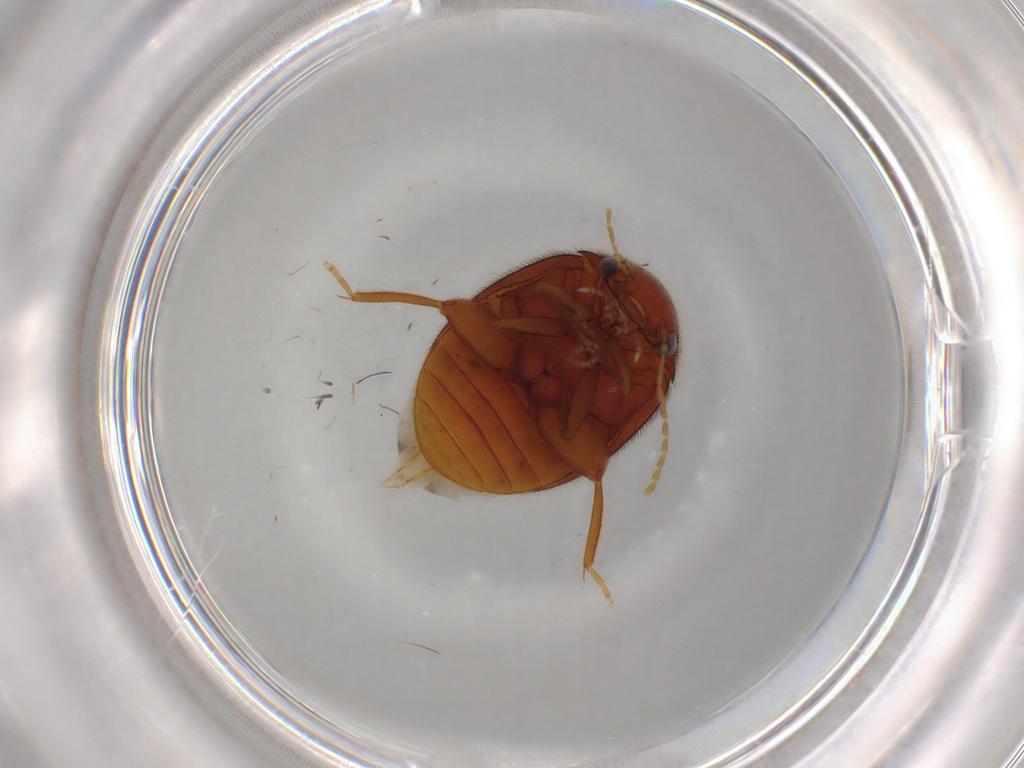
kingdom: Animalia
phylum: Arthropoda
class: Insecta
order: Coleoptera
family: Scirtidae
